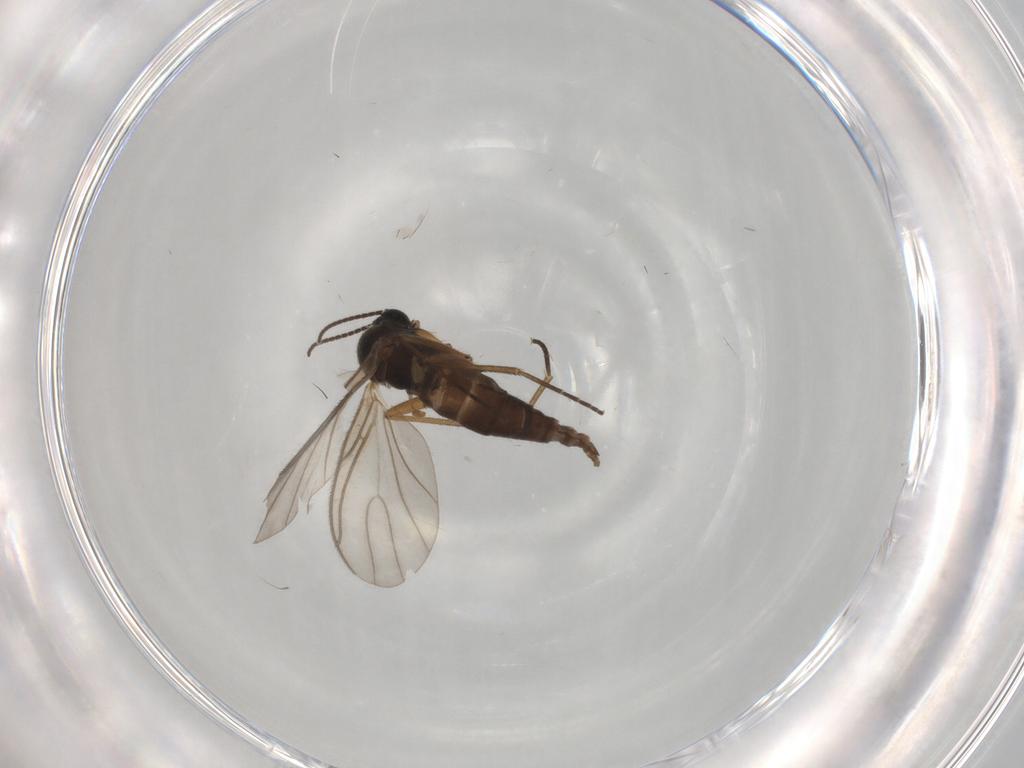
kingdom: Animalia
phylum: Arthropoda
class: Insecta
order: Diptera
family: Sciaridae
